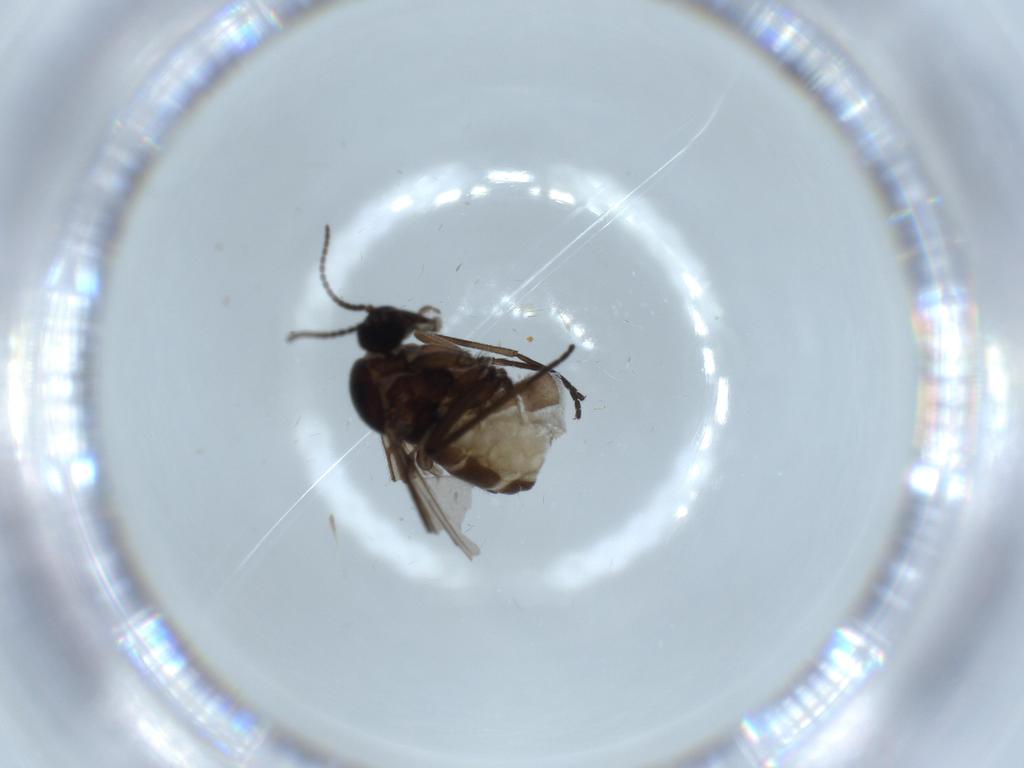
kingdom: Animalia
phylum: Arthropoda
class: Insecta
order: Diptera
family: Sciaridae
